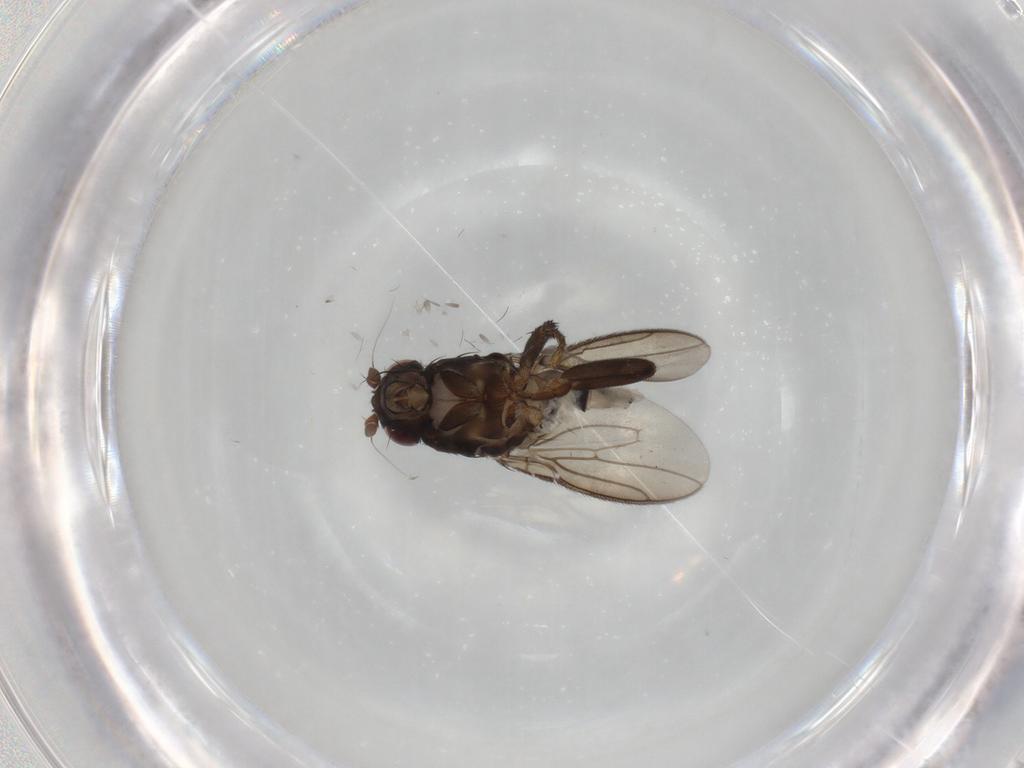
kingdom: Animalia
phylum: Arthropoda
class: Insecta
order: Diptera
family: Sphaeroceridae
